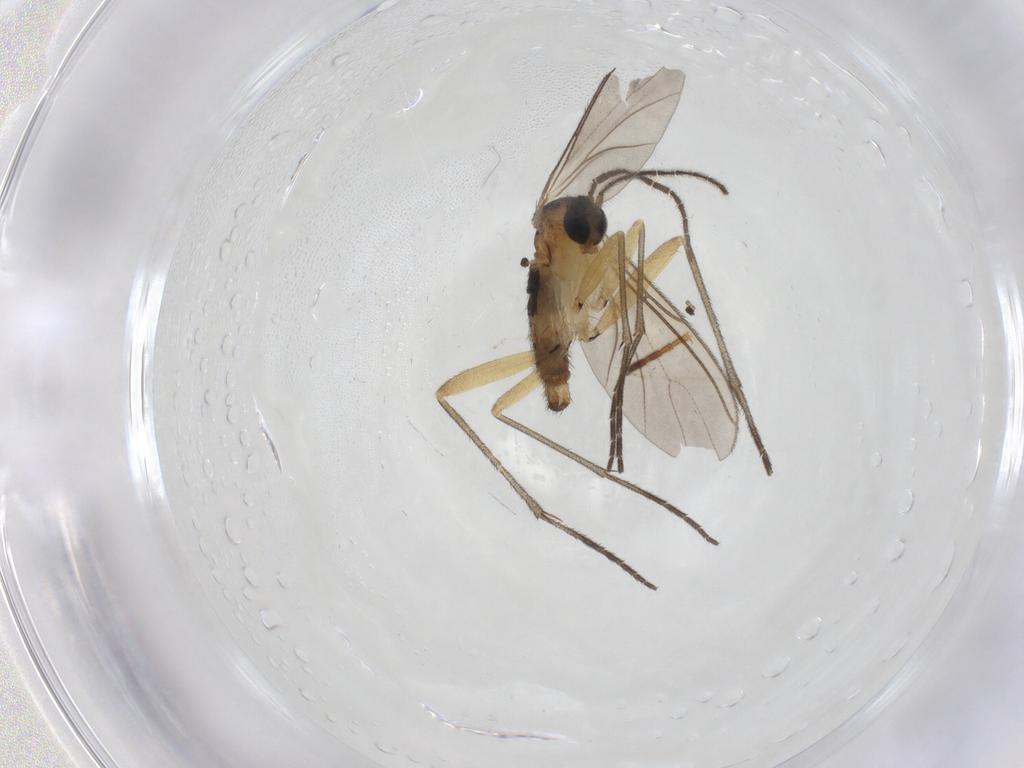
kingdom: Animalia
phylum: Arthropoda
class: Insecta
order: Diptera
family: Sciaridae
